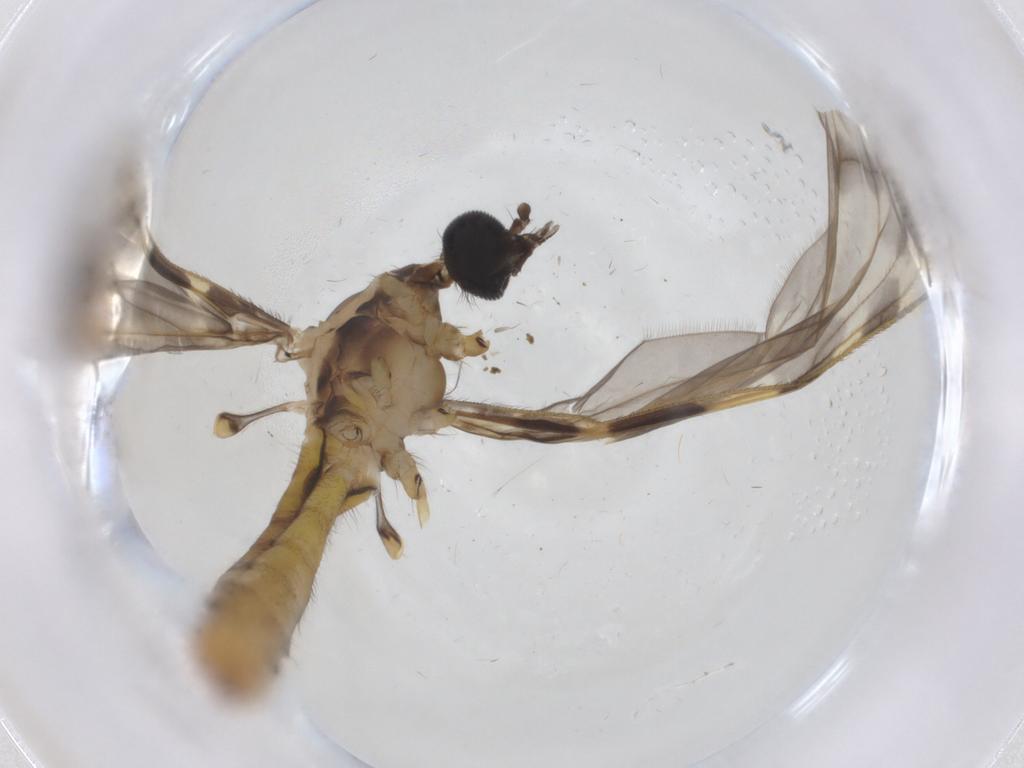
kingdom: Animalia
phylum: Arthropoda
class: Insecta
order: Diptera
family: Limoniidae
